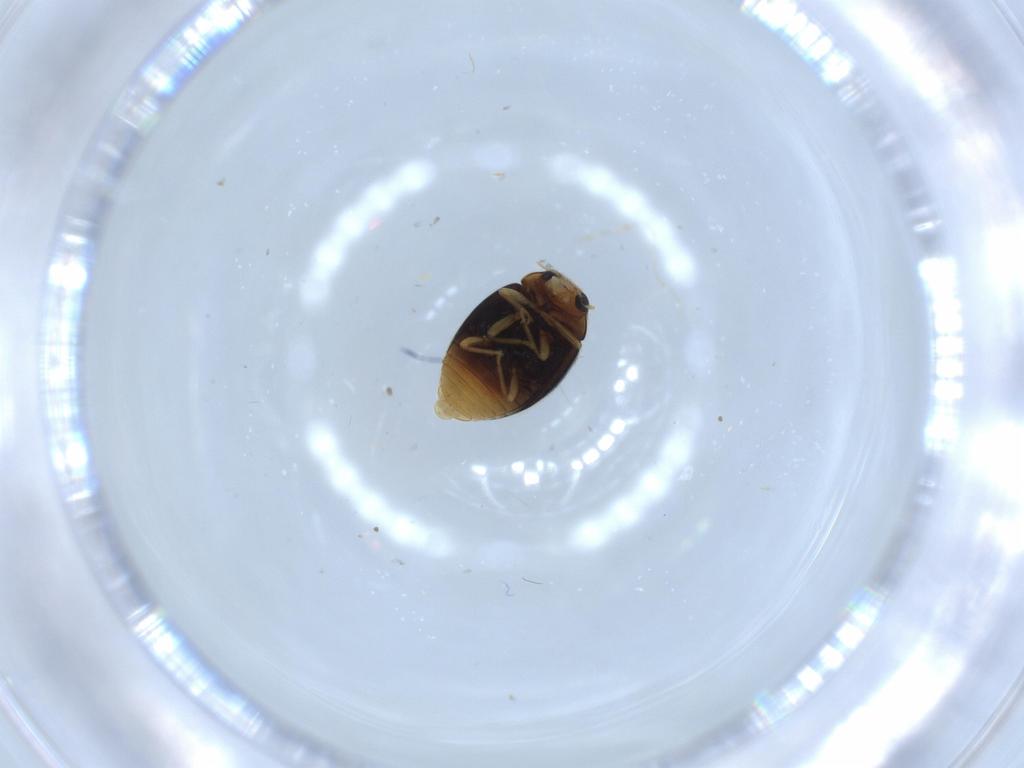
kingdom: Animalia
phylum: Arthropoda
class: Insecta
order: Coleoptera
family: Coccinellidae
